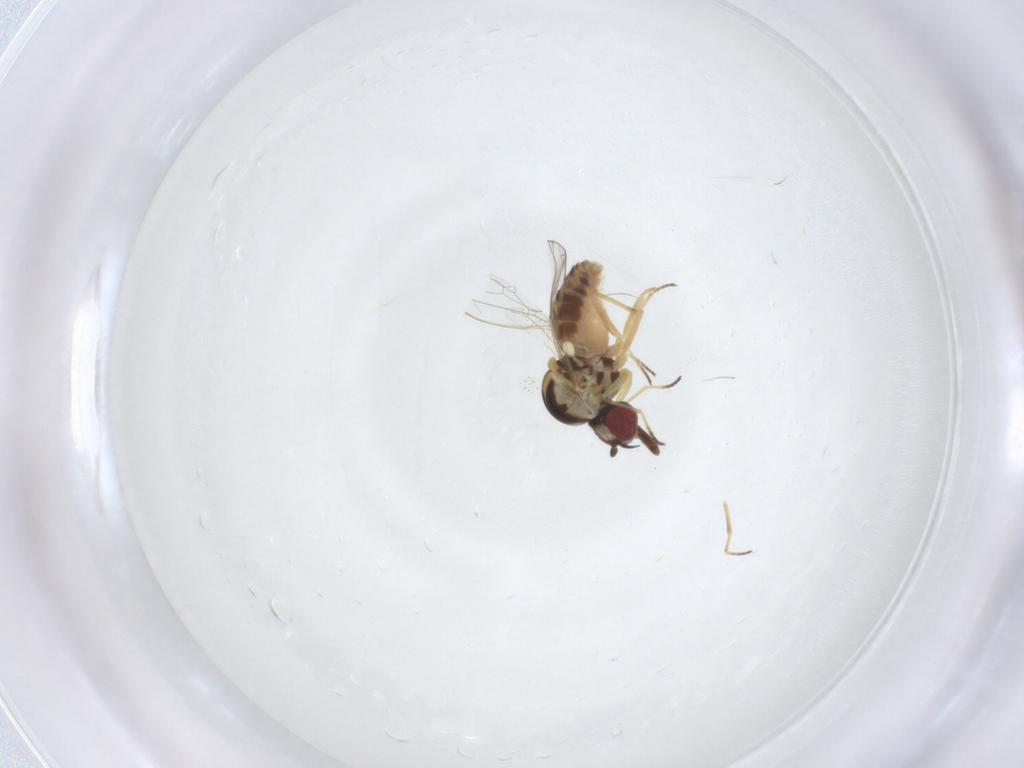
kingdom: Animalia
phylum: Arthropoda
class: Insecta
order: Diptera
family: Bombyliidae
